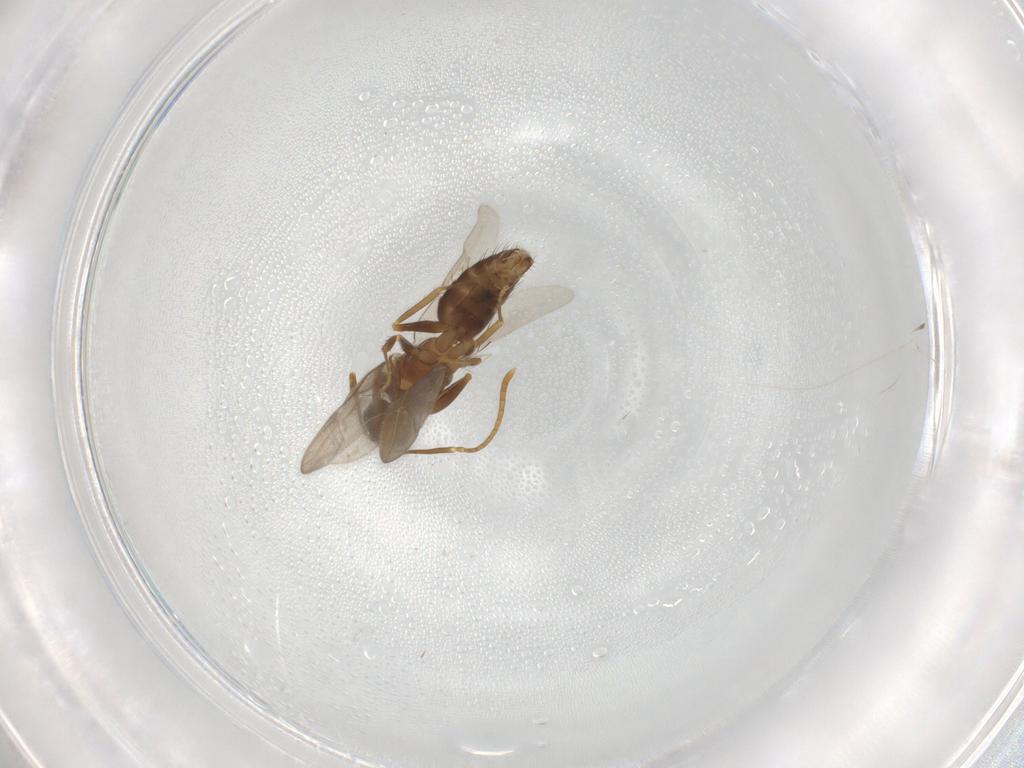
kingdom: Animalia
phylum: Arthropoda
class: Insecta
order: Hymenoptera
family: Formicidae
